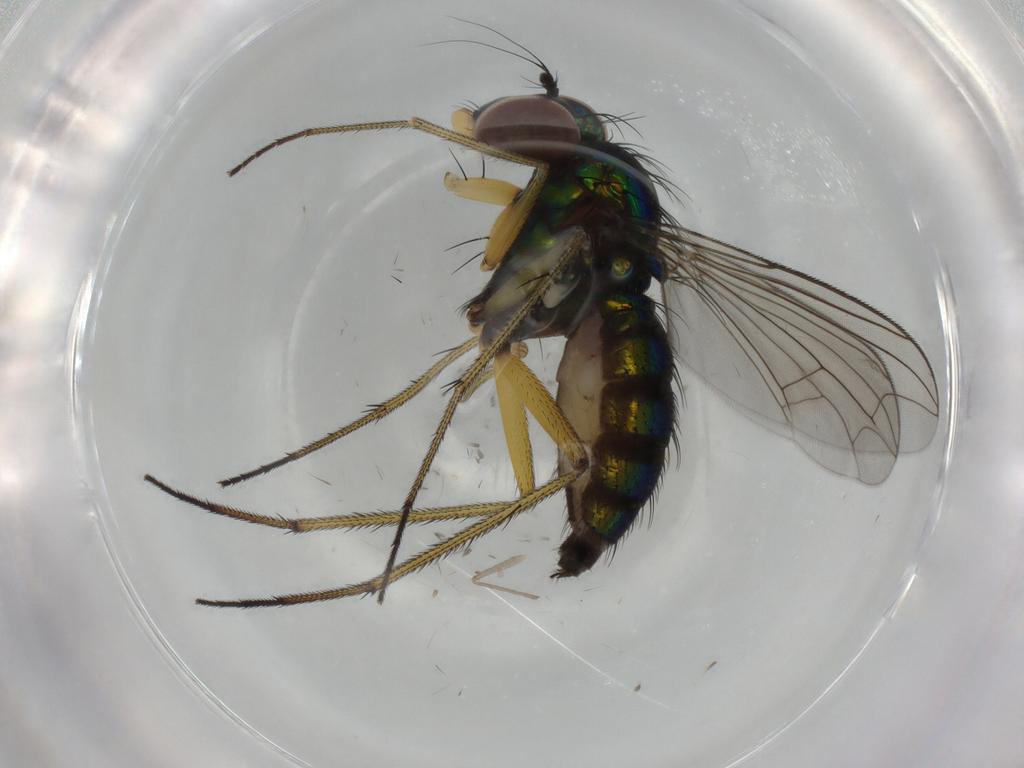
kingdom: Animalia
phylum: Arthropoda
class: Insecta
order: Diptera
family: Dolichopodidae
